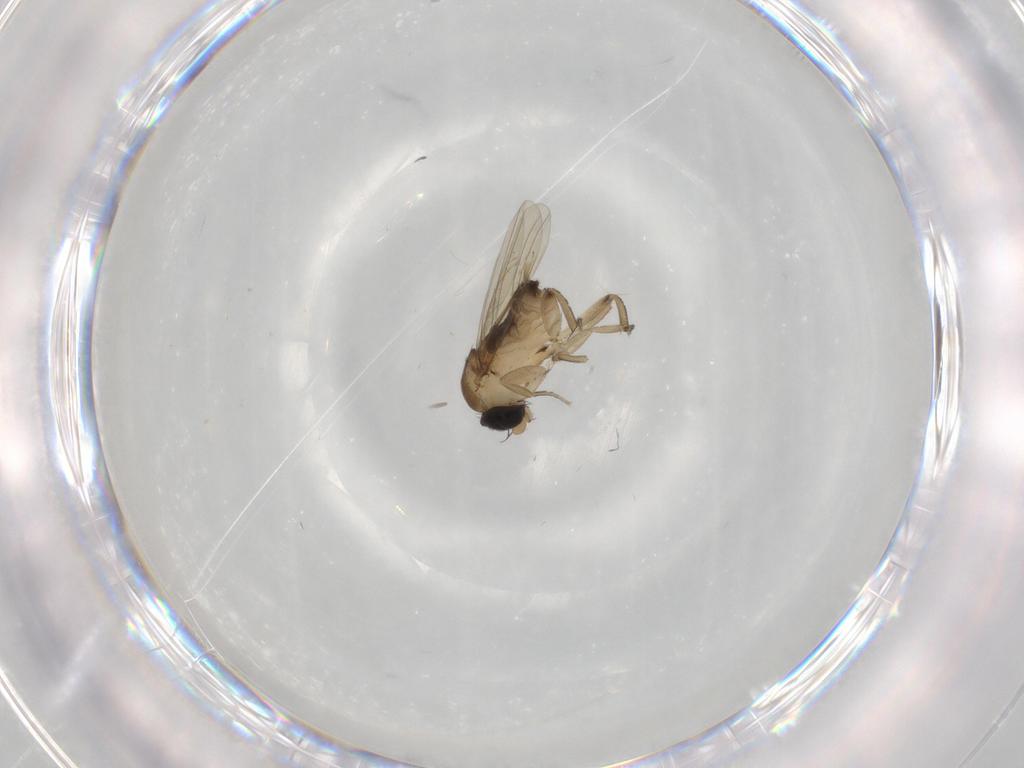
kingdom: Animalia
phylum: Arthropoda
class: Insecta
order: Diptera
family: Phoridae
